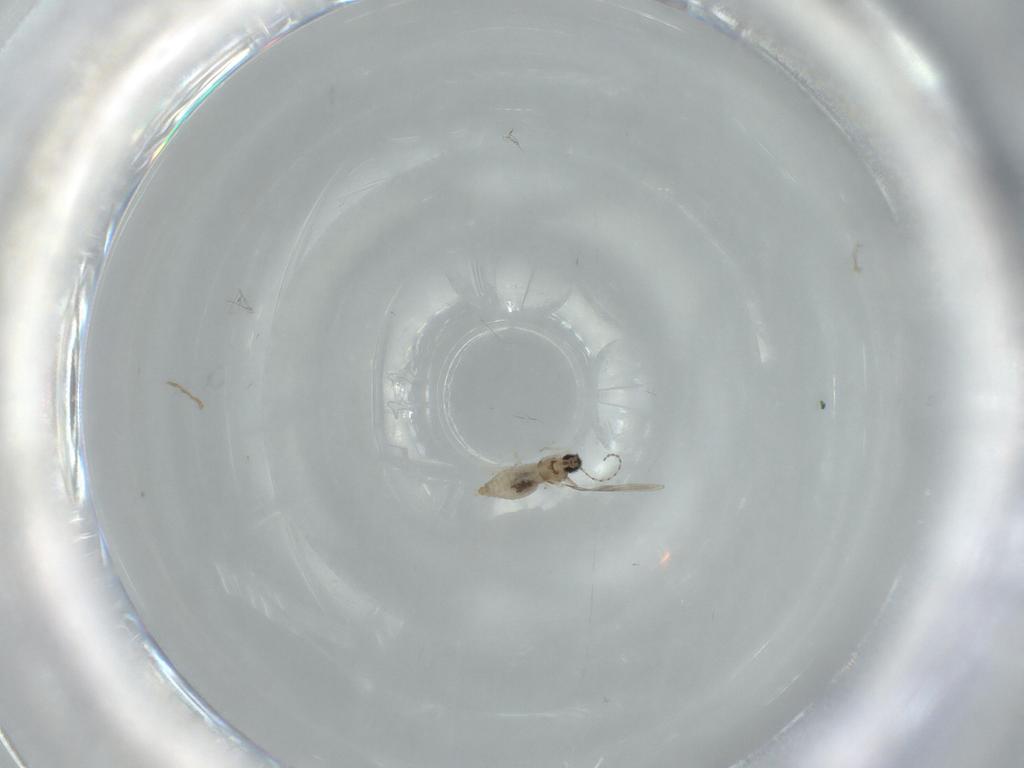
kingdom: Animalia
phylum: Arthropoda
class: Insecta
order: Diptera
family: Cecidomyiidae
